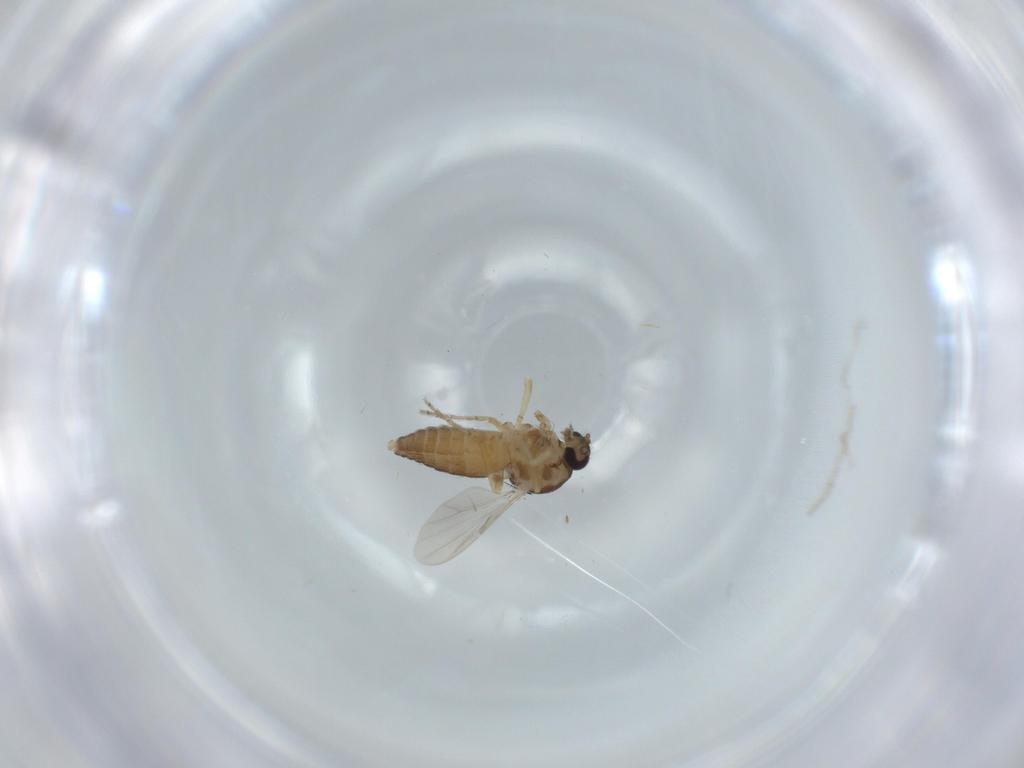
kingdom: Animalia
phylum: Arthropoda
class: Insecta
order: Diptera
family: Ceratopogonidae
